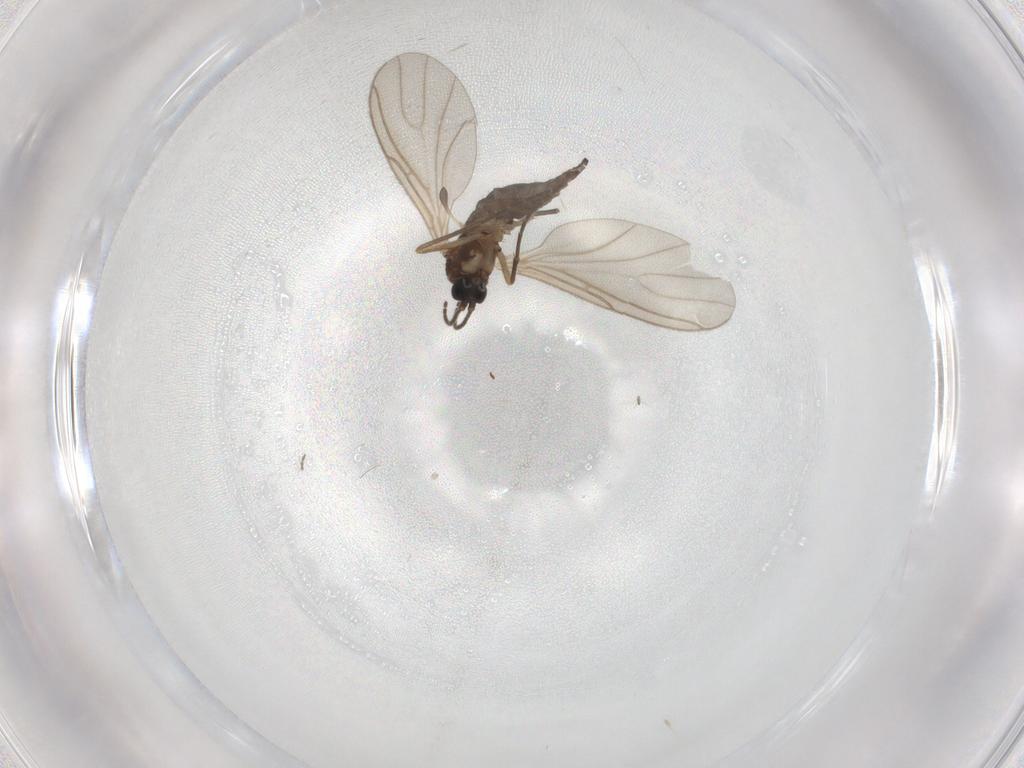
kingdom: Animalia
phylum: Arthropoda
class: Insecta
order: Diptera
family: Sciaridae
